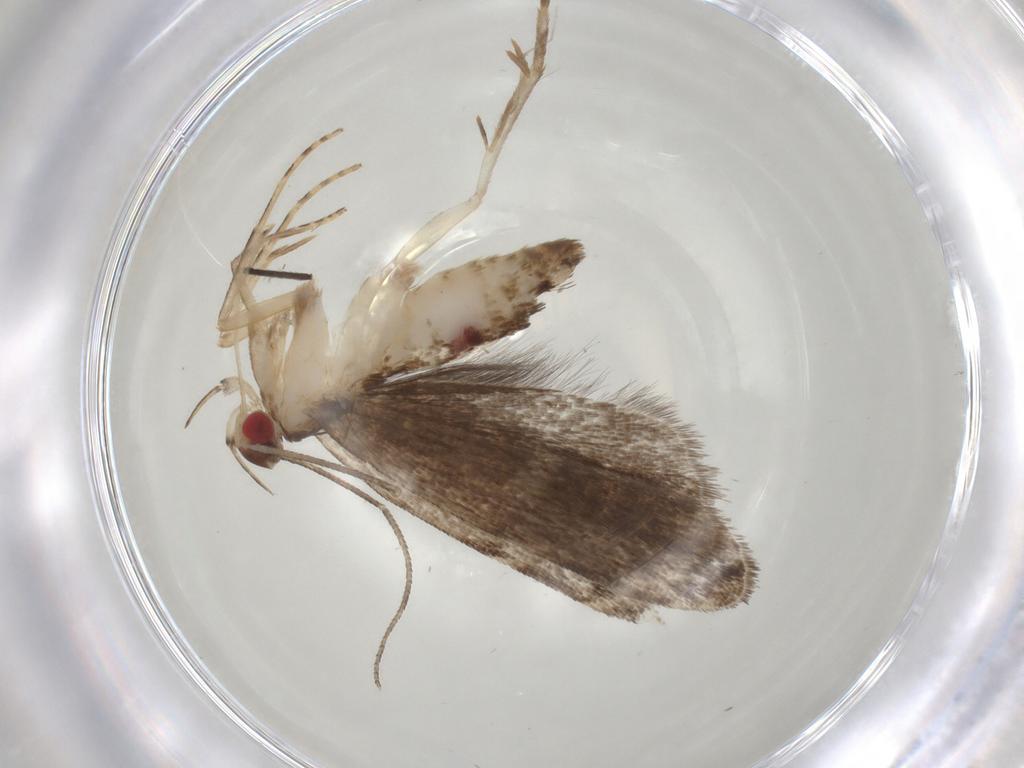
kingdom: Animalia
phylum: Arthropoda
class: Insecta
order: Lepidoptera
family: Gelechiidae
